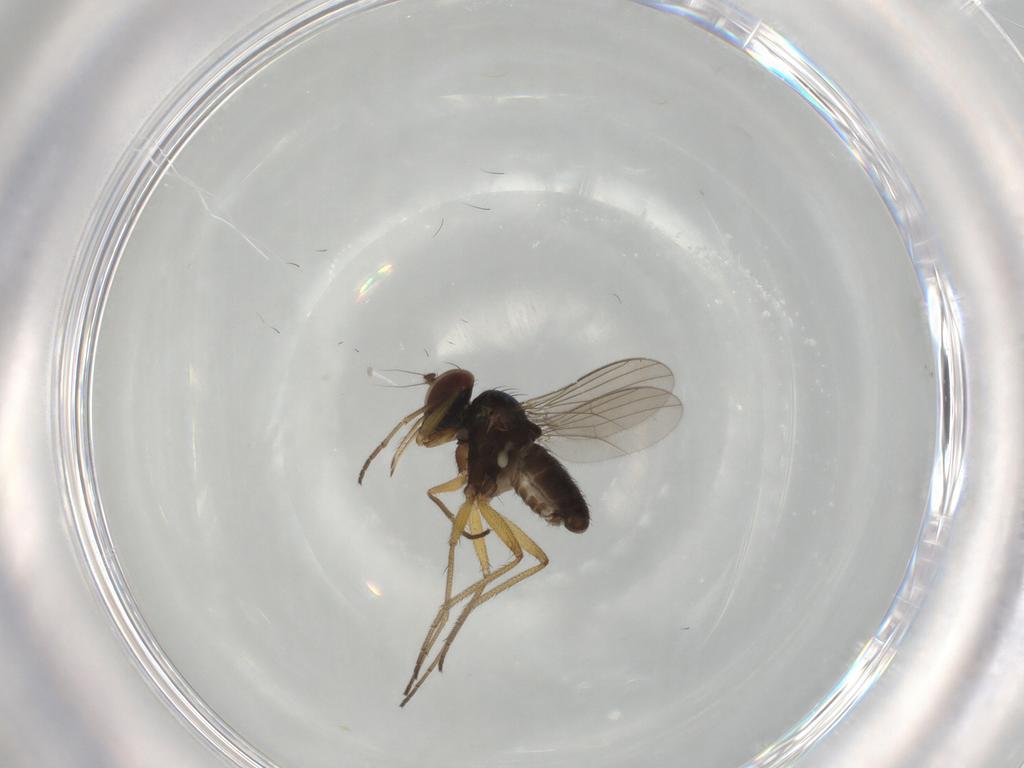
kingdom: Animalia
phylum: Arthropoda
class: Insecta
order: Diptera
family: Dolichopodidae
